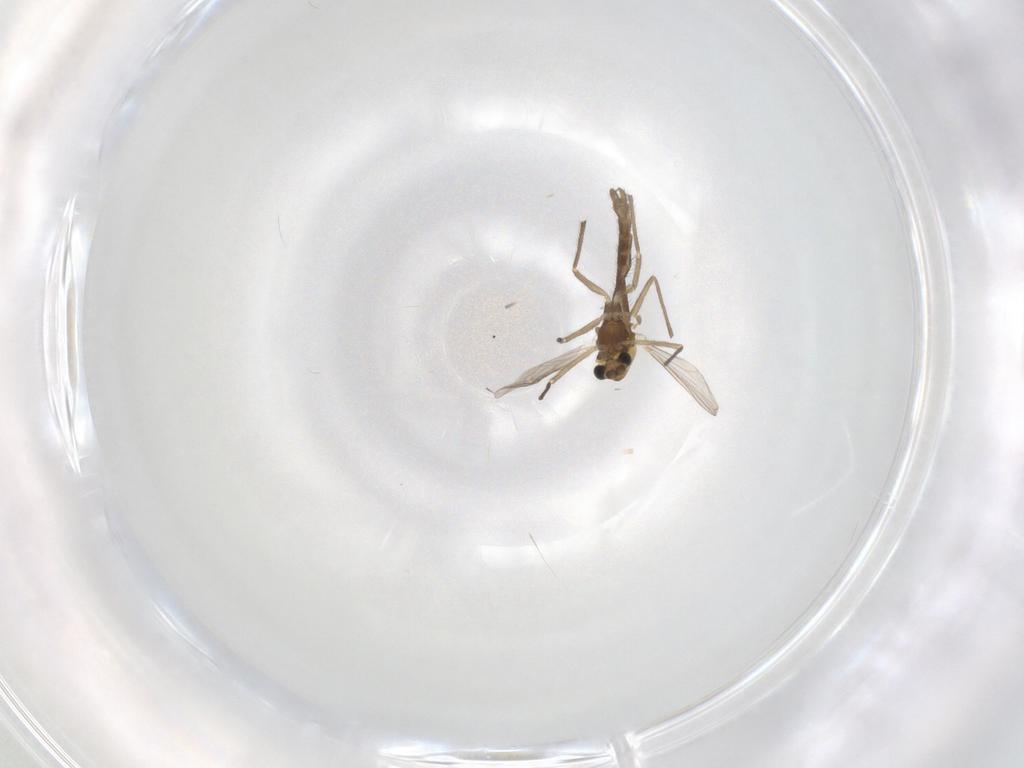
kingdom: Animalia
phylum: Arthropoda
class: Insecta
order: Diptera
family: Chironomidae
